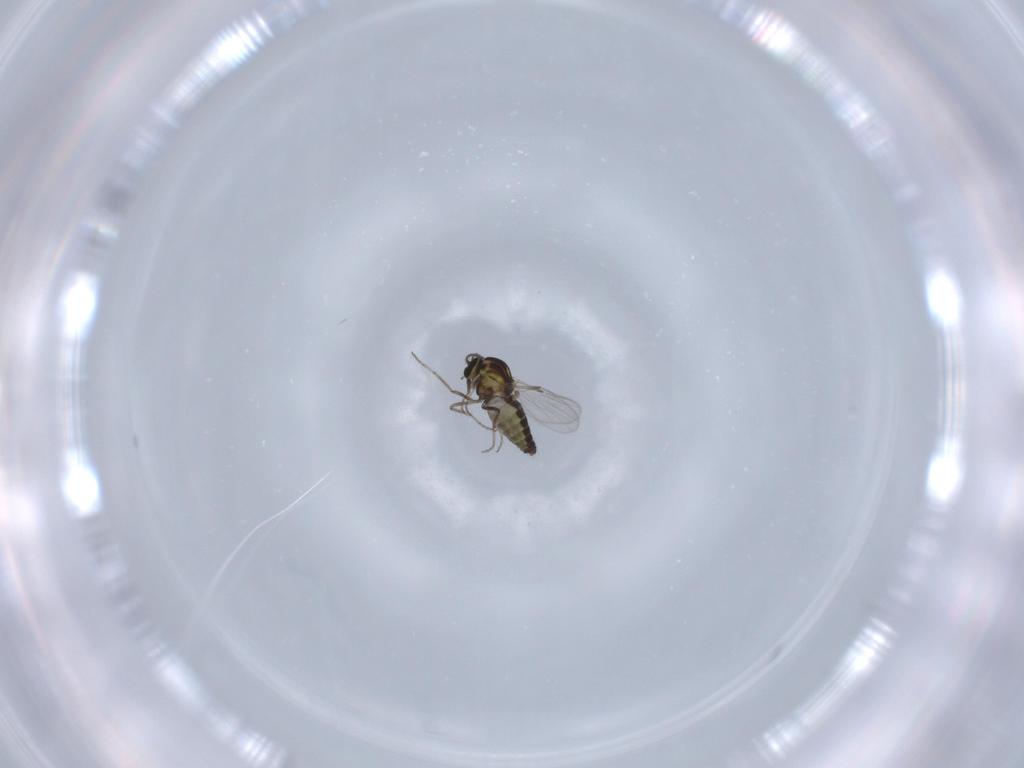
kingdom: Animalia
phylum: Arthropoda
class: Insecta
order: Diptera
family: Ceratopogonidae
